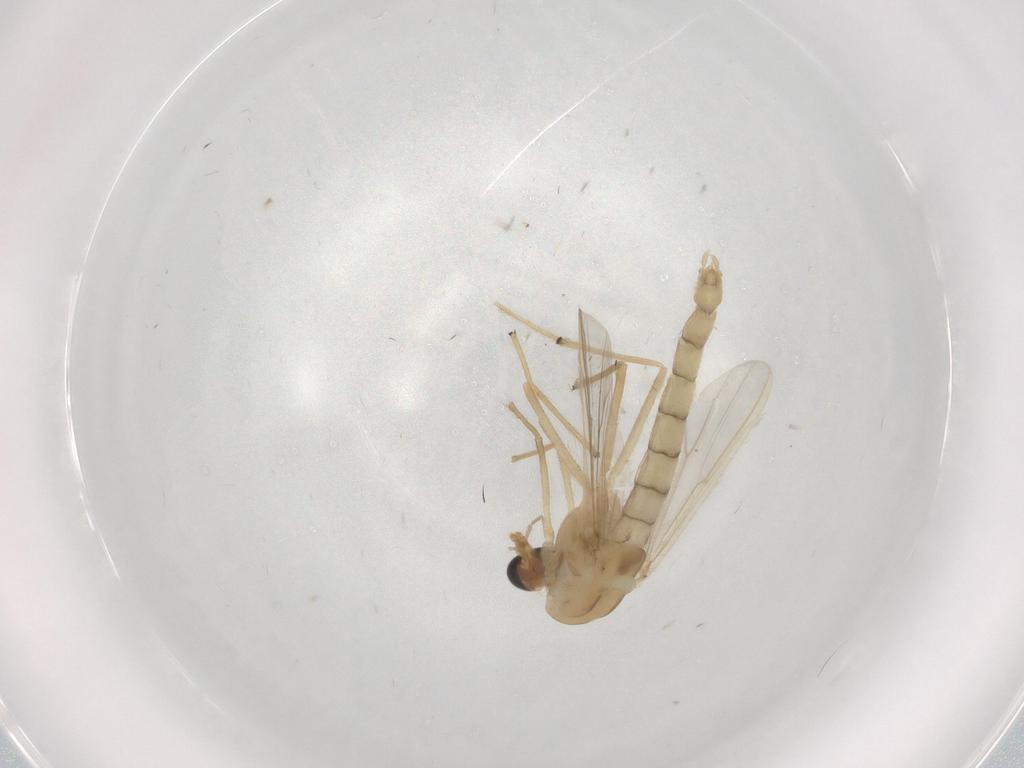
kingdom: Animalia
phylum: Arthropoda
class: Insecta
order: Diptera
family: Chironomidae
